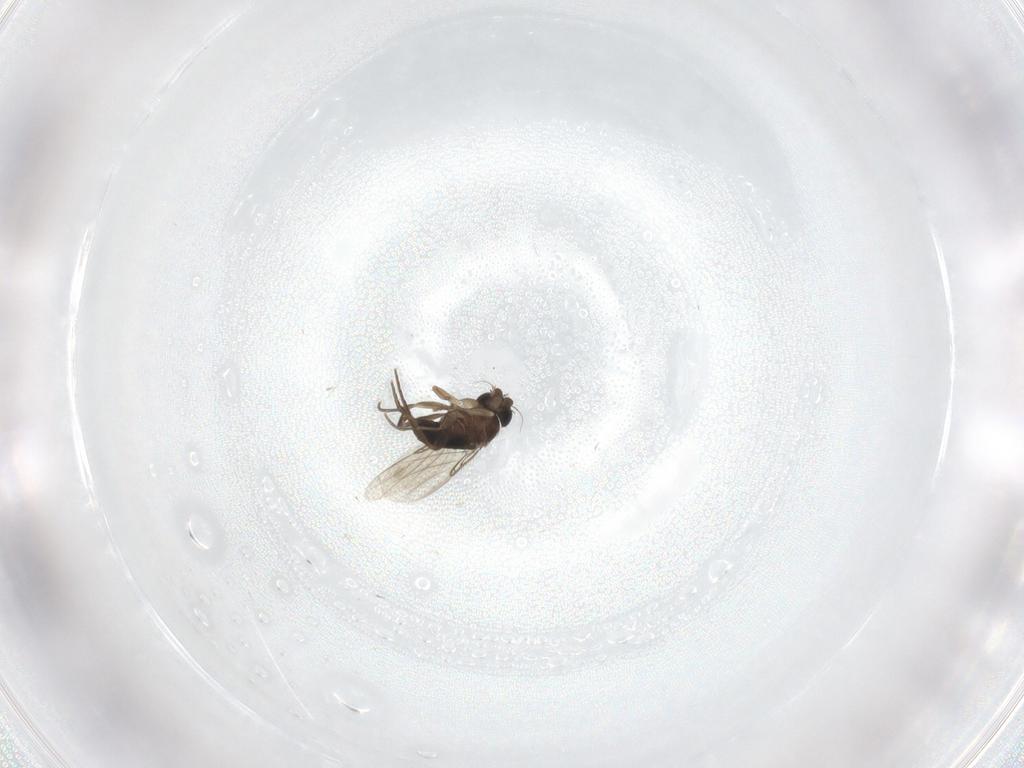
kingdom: Animalia
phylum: Arthropoda
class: Insecta
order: Diptera
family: Phoridae
